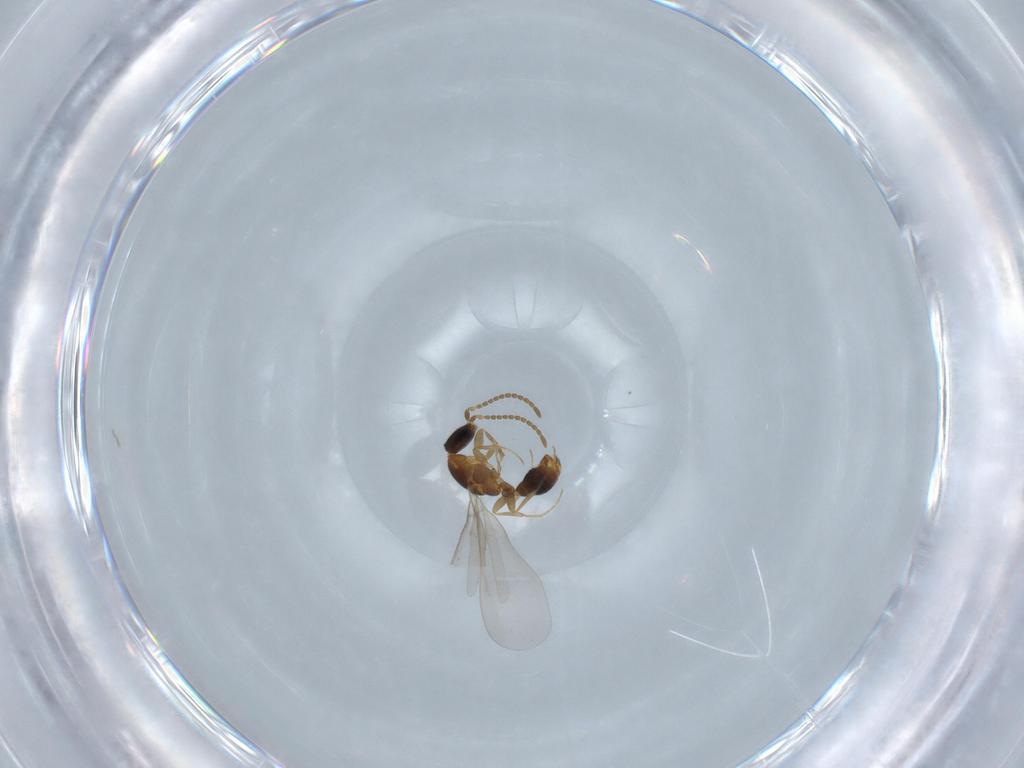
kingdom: Animalia
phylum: Arthropoda
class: Insecta
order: Hymenoptera
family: Formicidae
